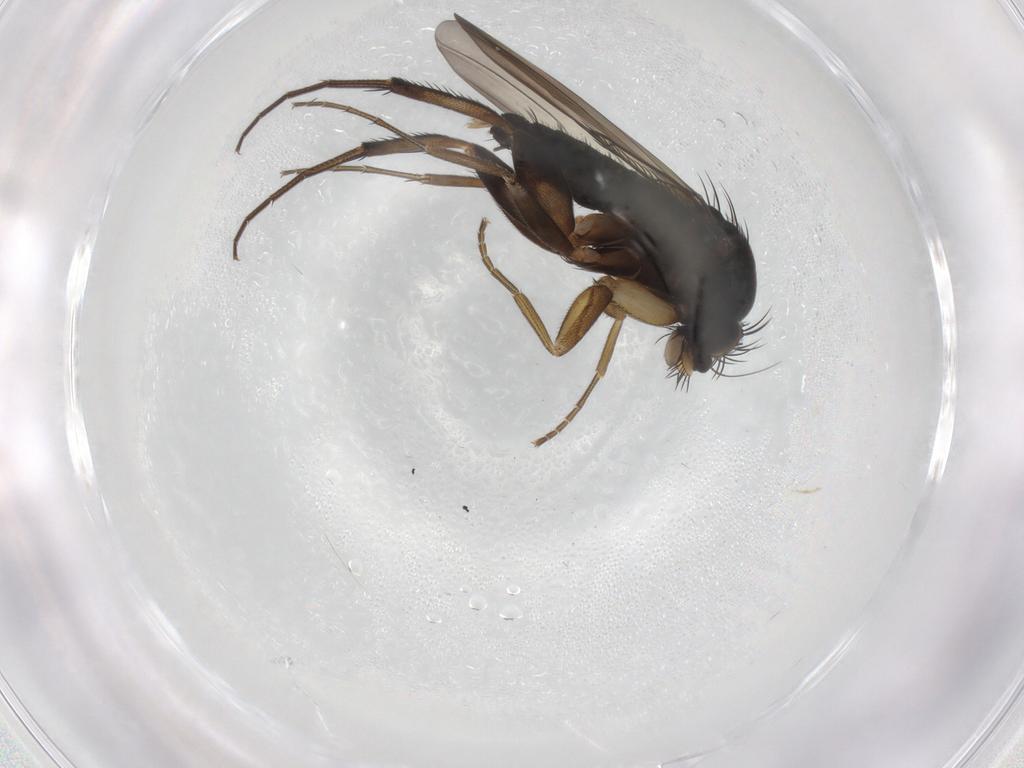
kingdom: Animalia
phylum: Arthropoda
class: Insecta
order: Diptera
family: Phoridae
